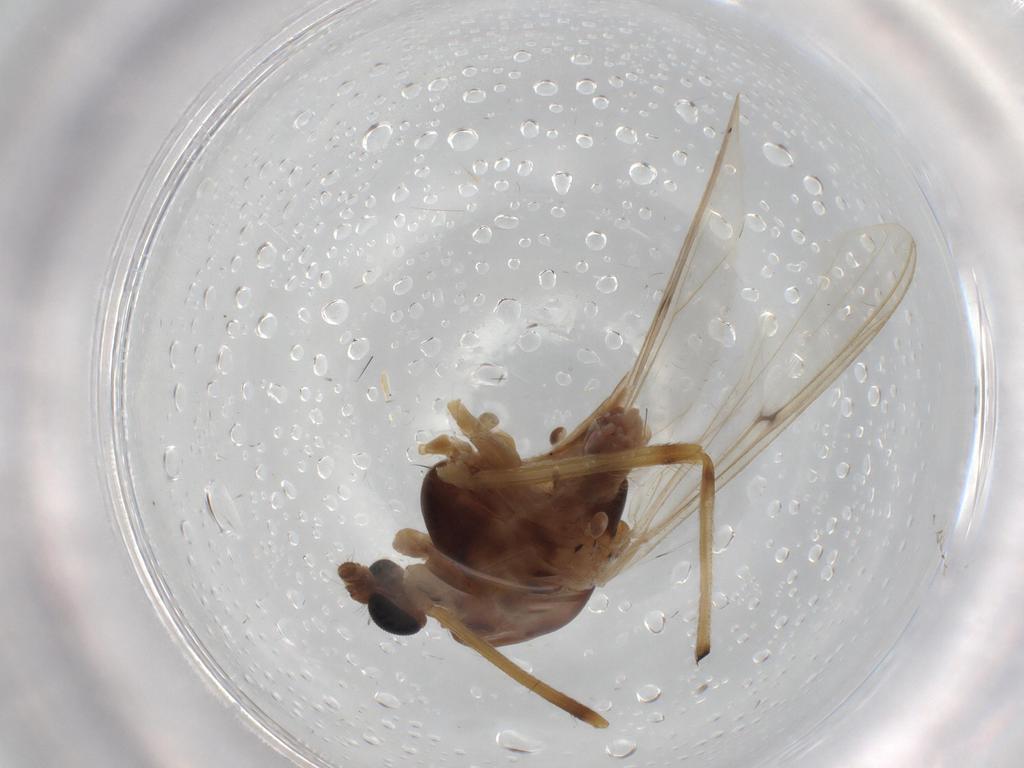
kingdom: Animalia
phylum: Arthropoda
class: Insecta
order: Diptera
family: Chironomidae
